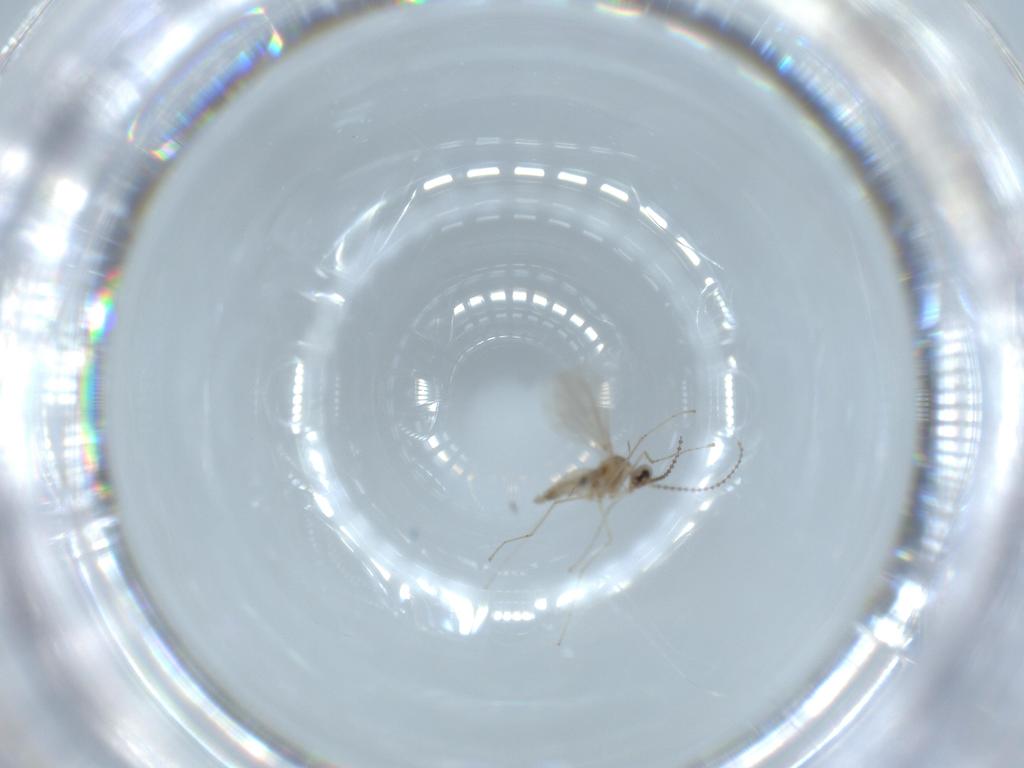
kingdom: Animalia
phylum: Arthropoda
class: Insecta
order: Diptera
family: Cecidomyiidae
